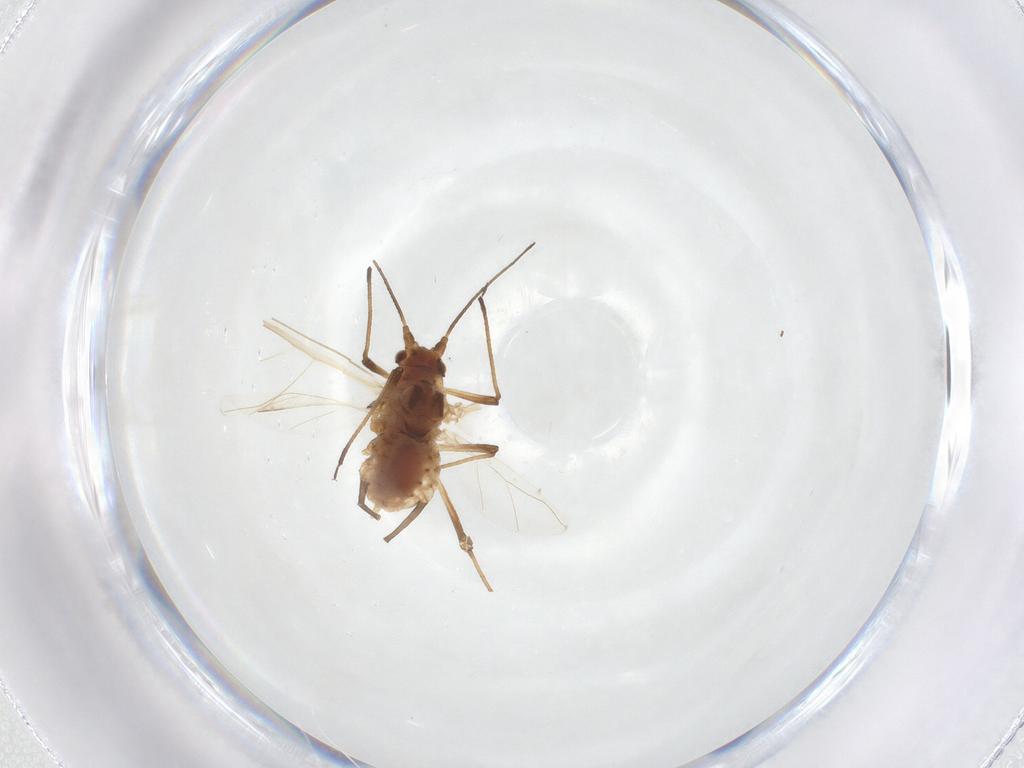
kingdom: Animalia
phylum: Arthropoda
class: Insecta
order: Hemiptera
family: Aphididae
